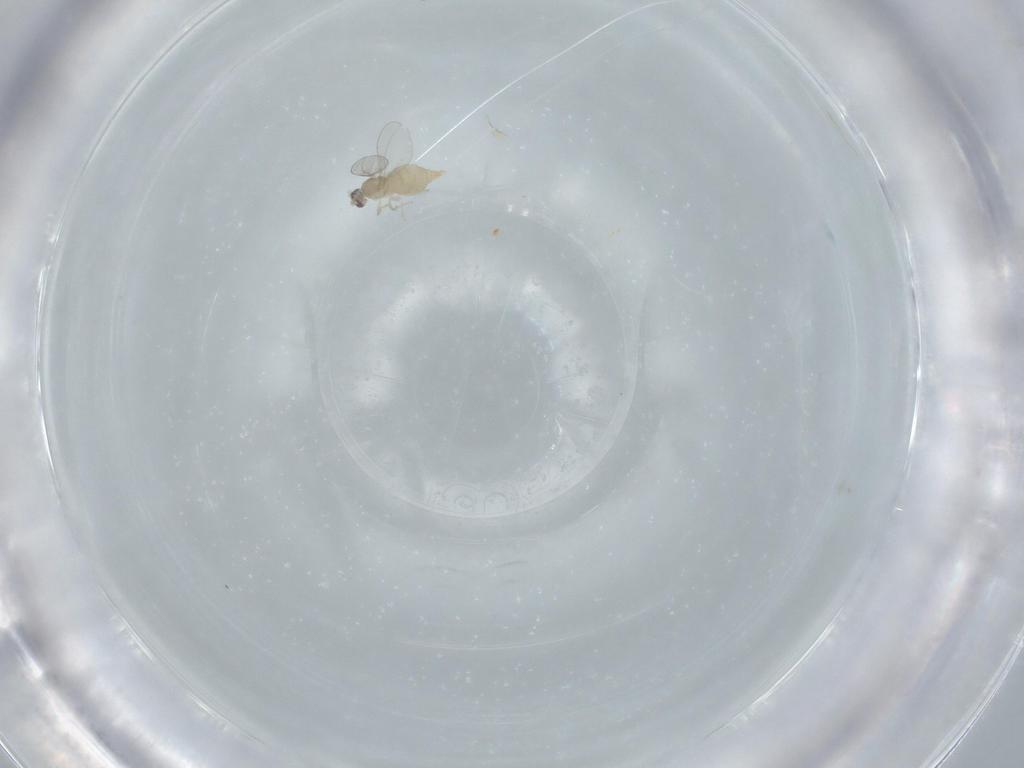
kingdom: Animalia
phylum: Arthropoda
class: Insecta
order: Diptera
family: Cecidomyiidae
